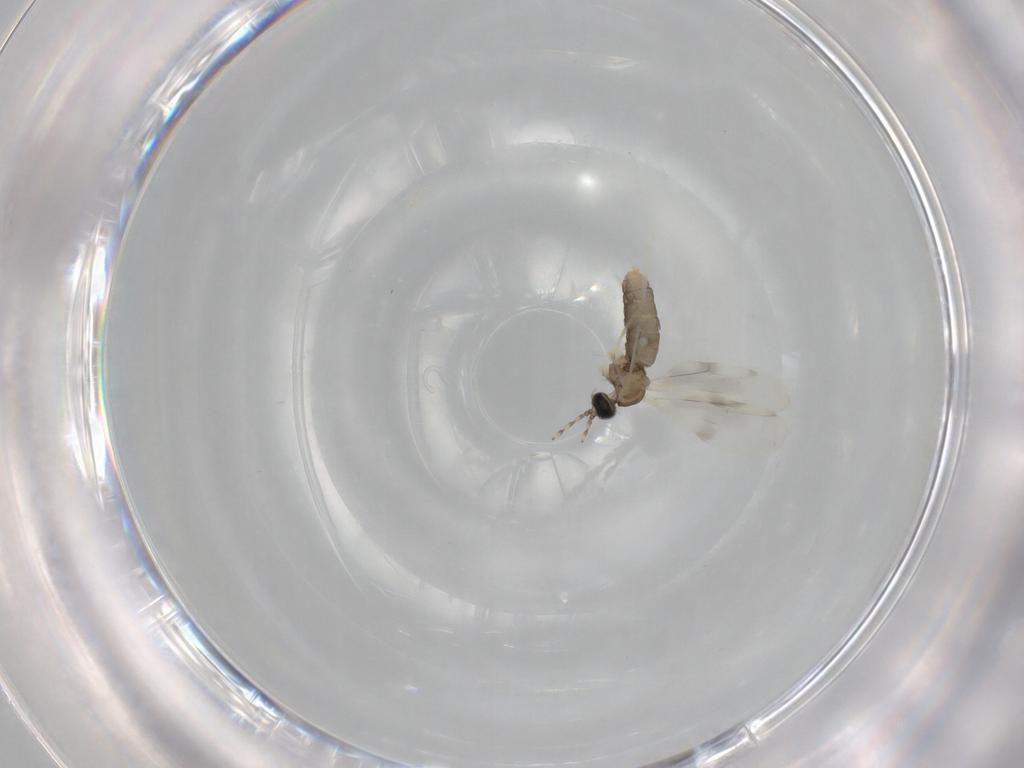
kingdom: Animalia
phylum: Arthropoda
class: Insecta
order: Diptera
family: Cecidomyiidae
